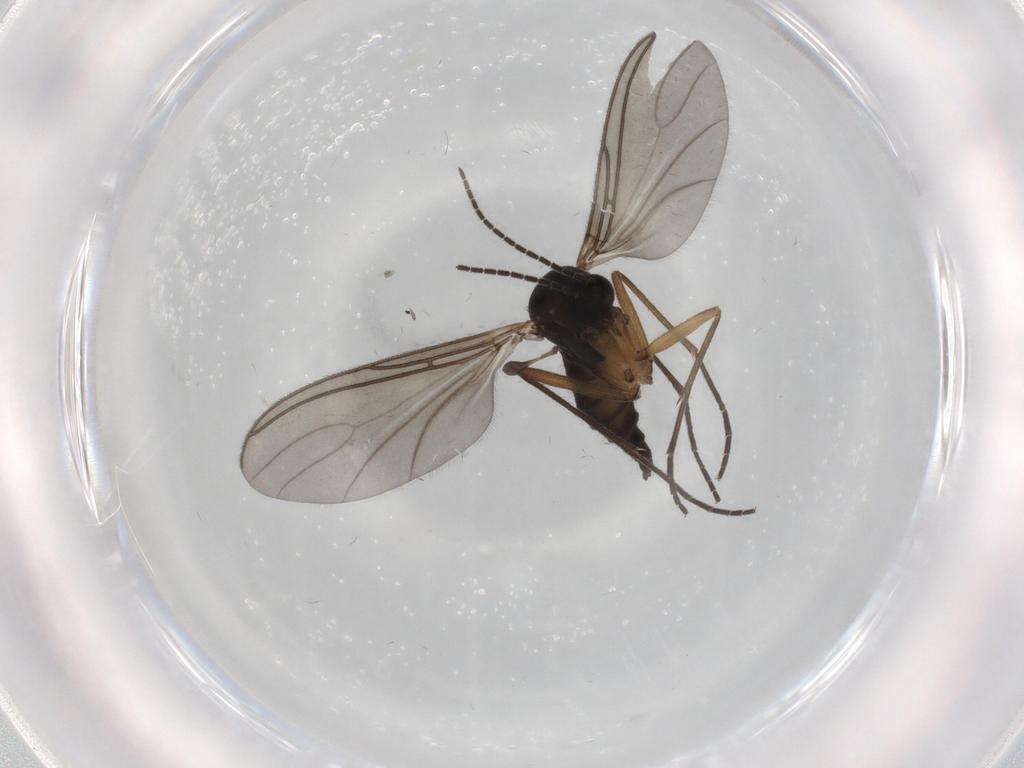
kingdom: Animalia
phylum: Arthropoda
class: Insecta
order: Diptera
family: Sciaridae
